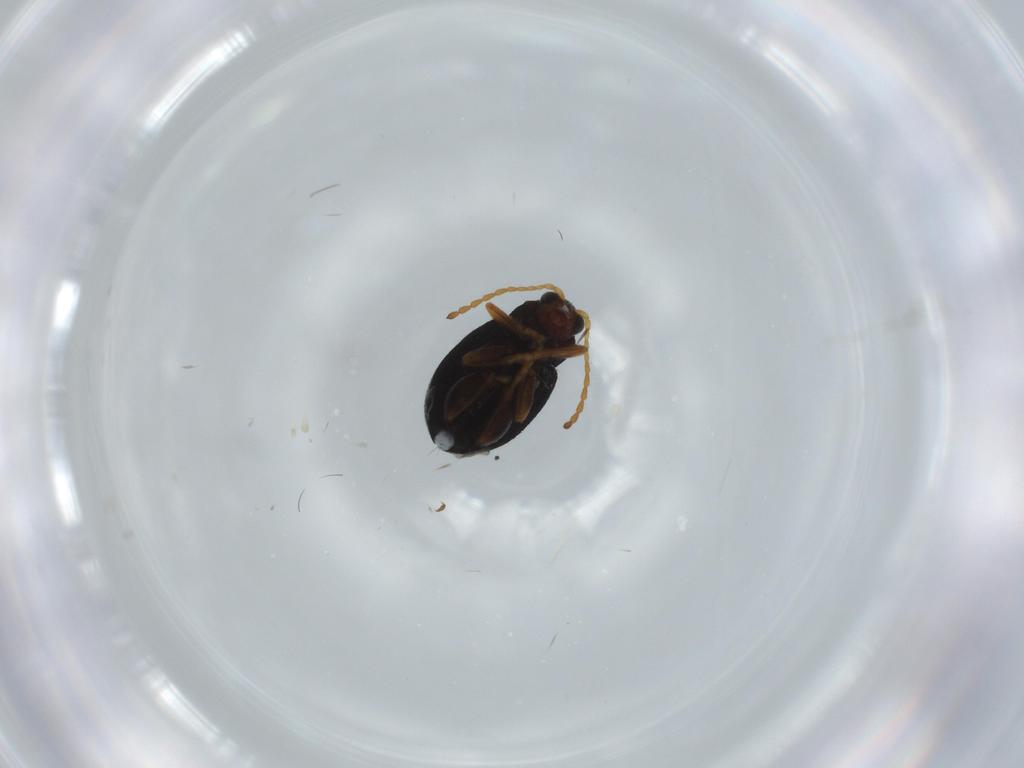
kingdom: Animalia
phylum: Arthropoda
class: Insecta
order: Coleoptera
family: Chrysomelidae
